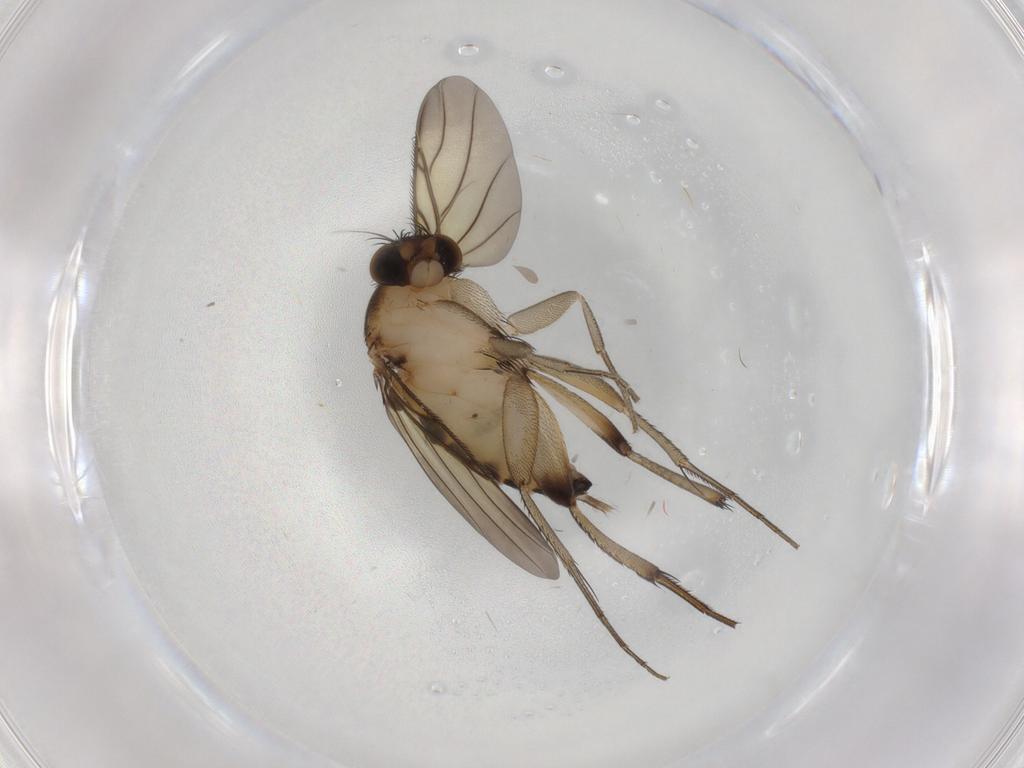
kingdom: Animalia
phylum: Arthropoda
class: Insecta
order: Diptera
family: Phoridae
